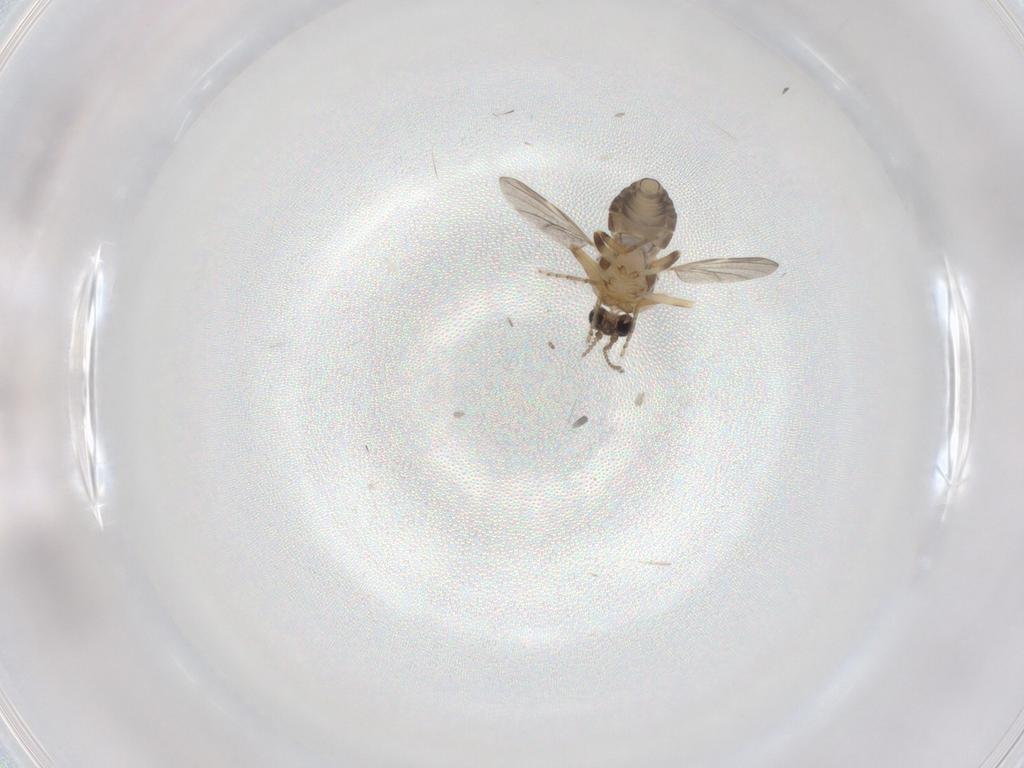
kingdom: Animalia
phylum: Arthropoda
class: Insecta
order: Diptera
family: Ceratopogonidae
